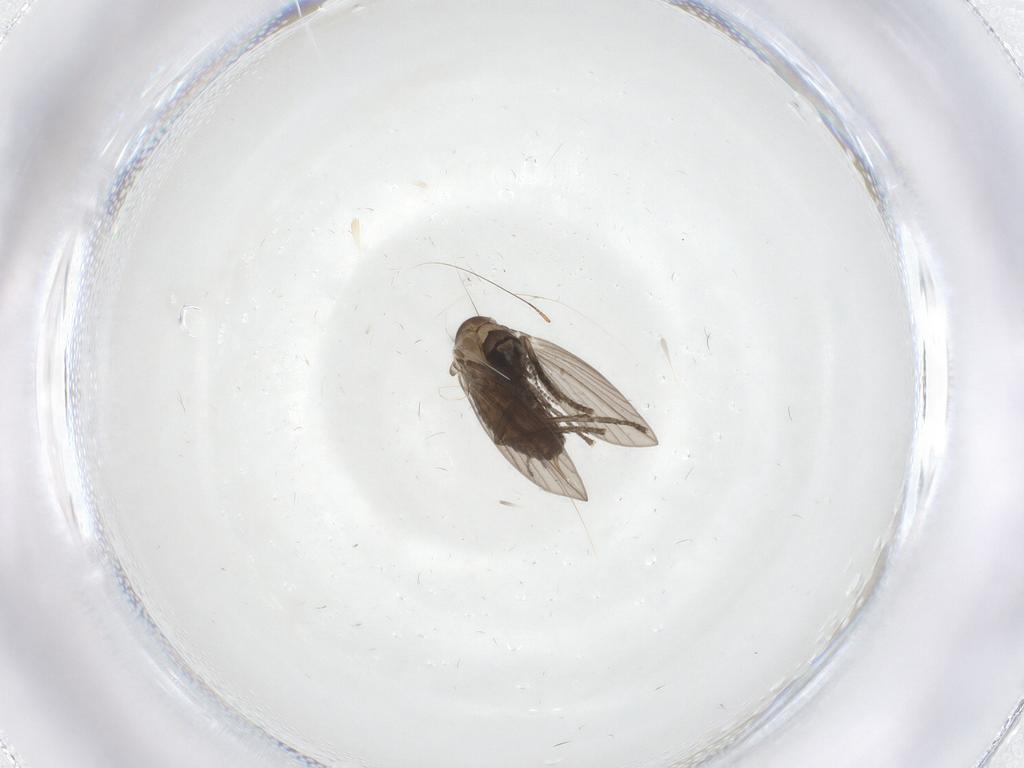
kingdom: Animalia
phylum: Arthropoda
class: Insecta
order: Diptera
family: Psychodidae
